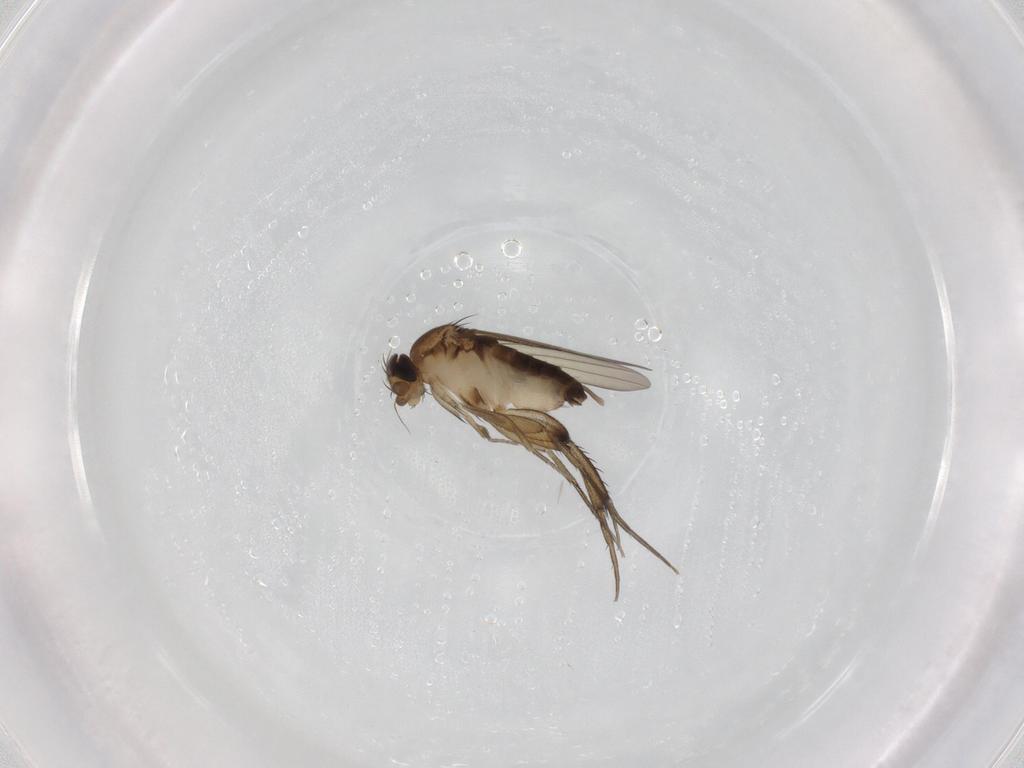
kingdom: Animalia
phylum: Arthropoda
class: Insecta
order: Diptera
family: Phoridae
